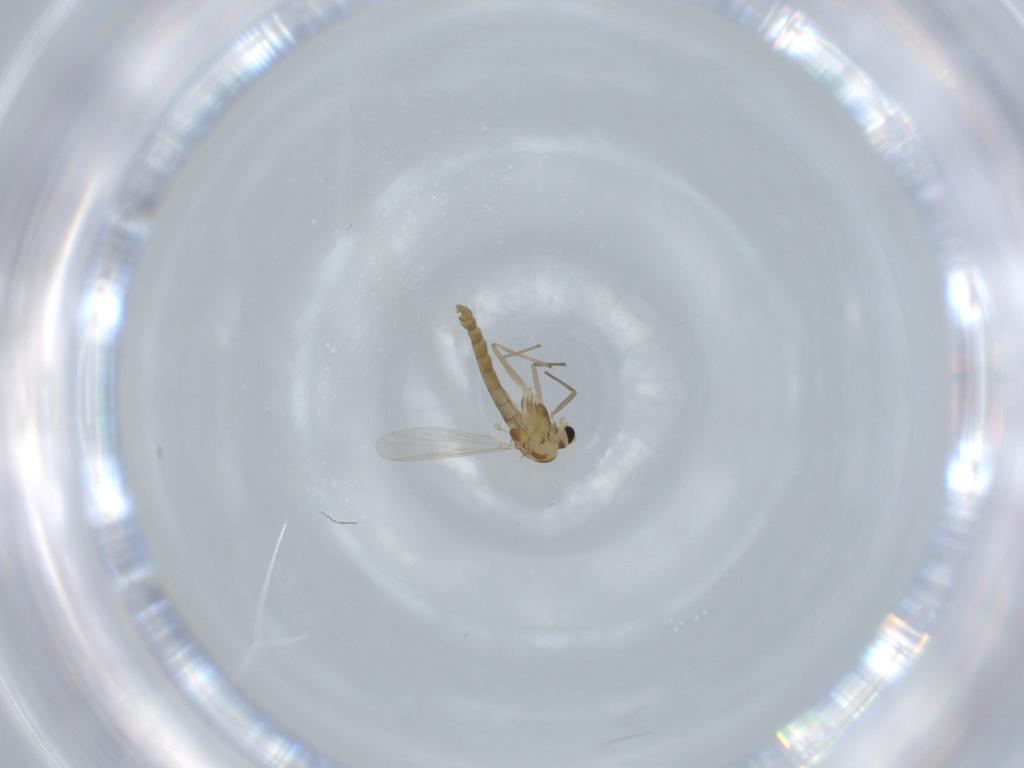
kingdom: Animalia
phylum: Arthropoda
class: Insecta
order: Diptera
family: Chironomidae
